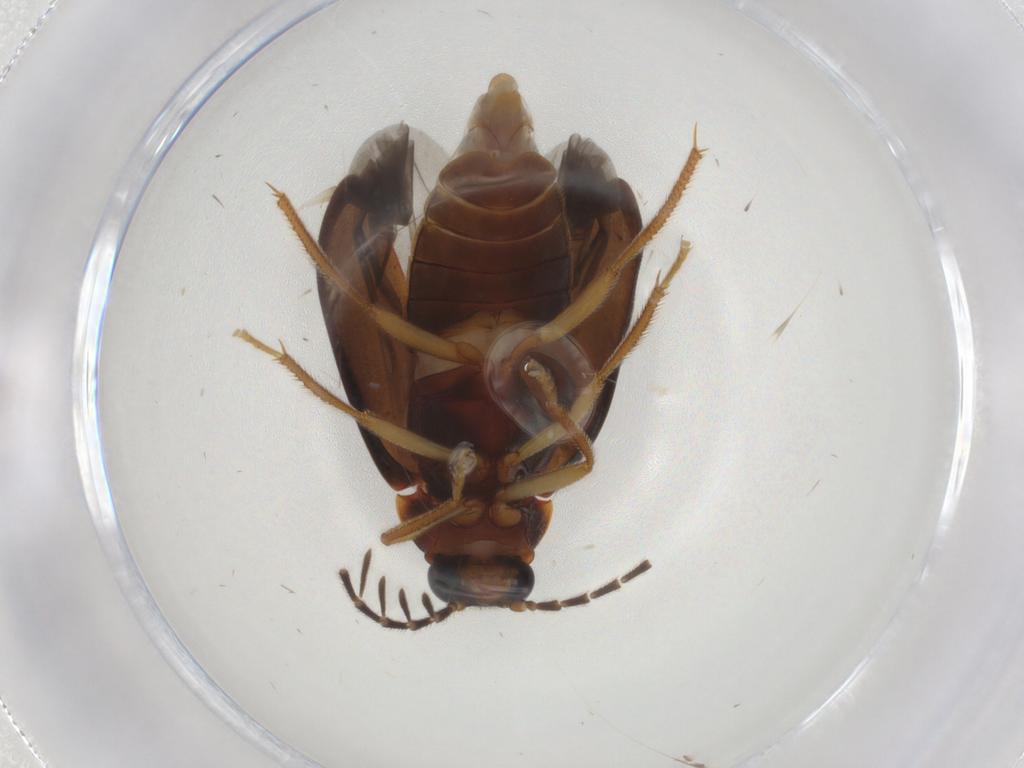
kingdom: Animalia
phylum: Arthropoda
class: Insecta
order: Coleoptera
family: Ptilodactylidae
